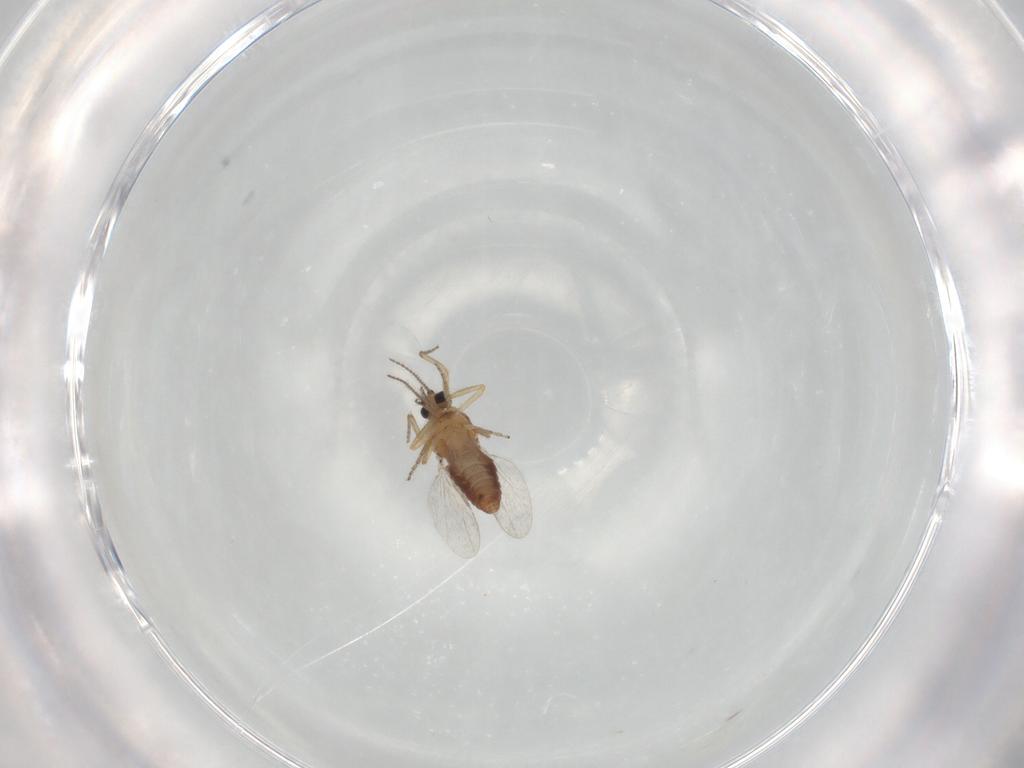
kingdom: Animalia
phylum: Arthropoda
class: Insecta
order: Diptera
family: Ceratopogonidae
